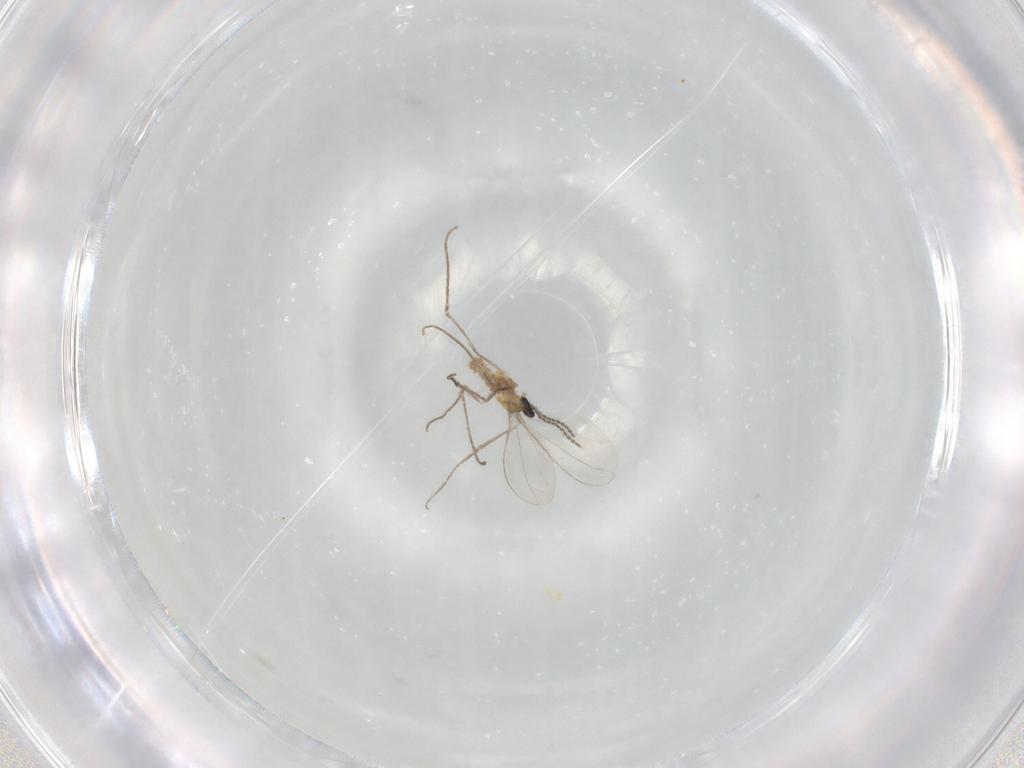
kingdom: Animalia
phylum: Arthropoda
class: Insecta
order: Diptera
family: Cecidomyiidae
